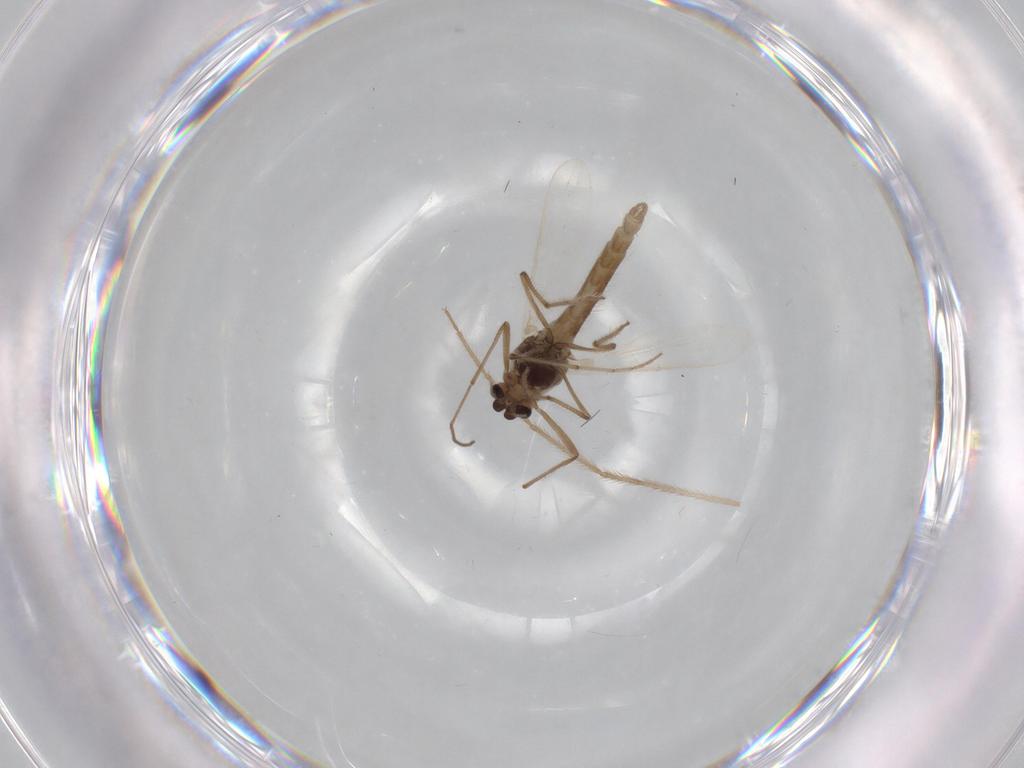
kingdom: Animalia
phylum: Arthropoda
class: Insecta
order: Diptera
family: Chironomidae
